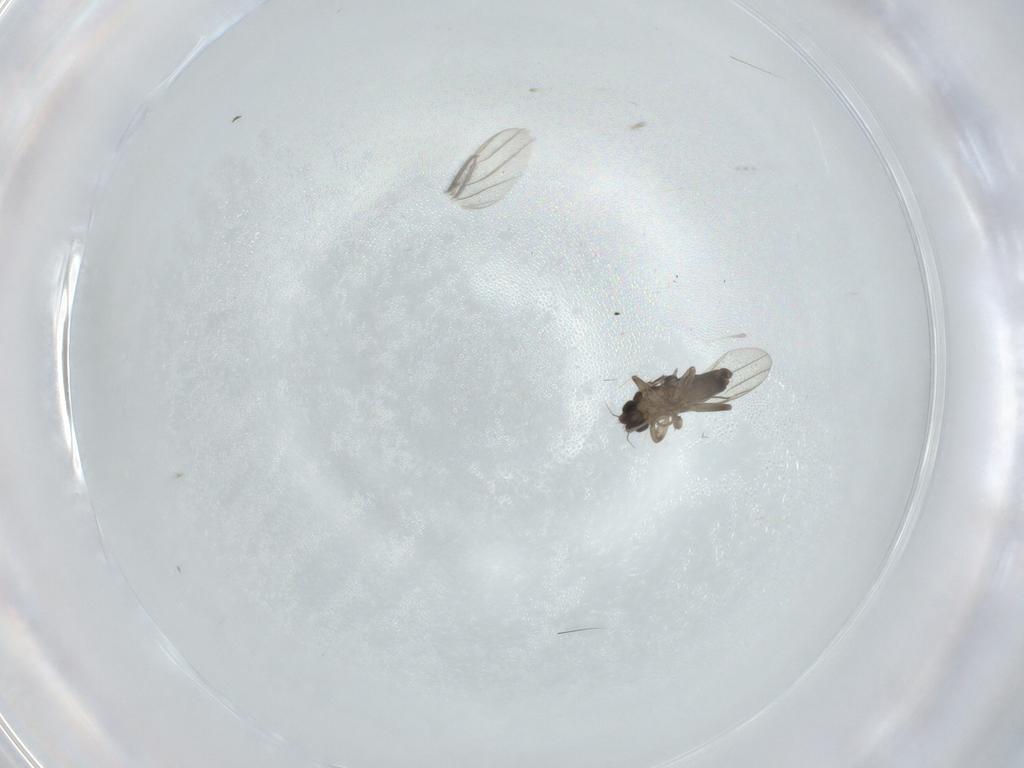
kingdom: Animalia
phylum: Arthropoda
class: Insecta
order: Diptera
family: Phoridae
